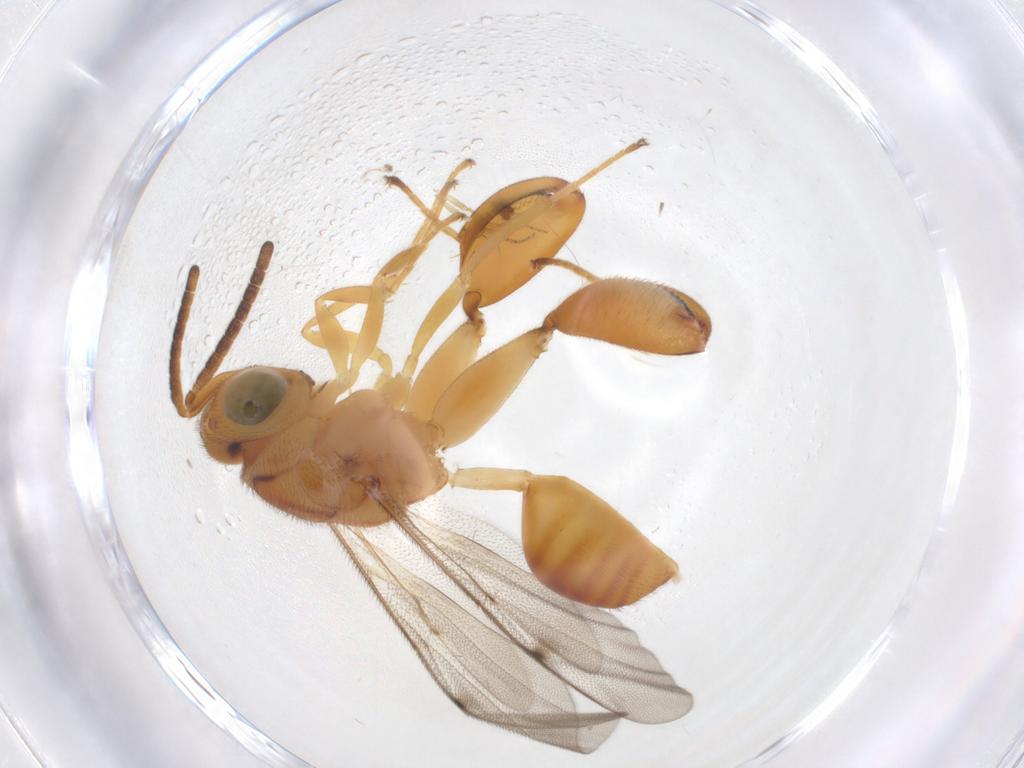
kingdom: Animalia
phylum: Arthropoda
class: Insecta
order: Hymenoptera
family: Chalcididae
